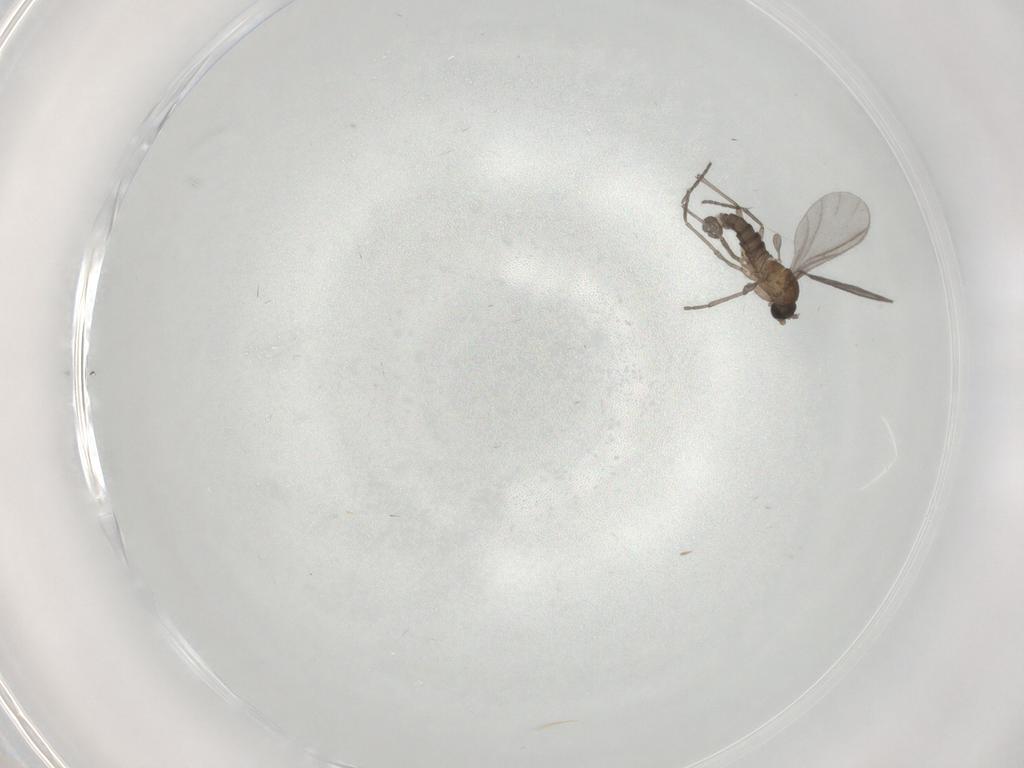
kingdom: Animalia
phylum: Arthropoda
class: Insecta
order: Diptera
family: Sciaridae
